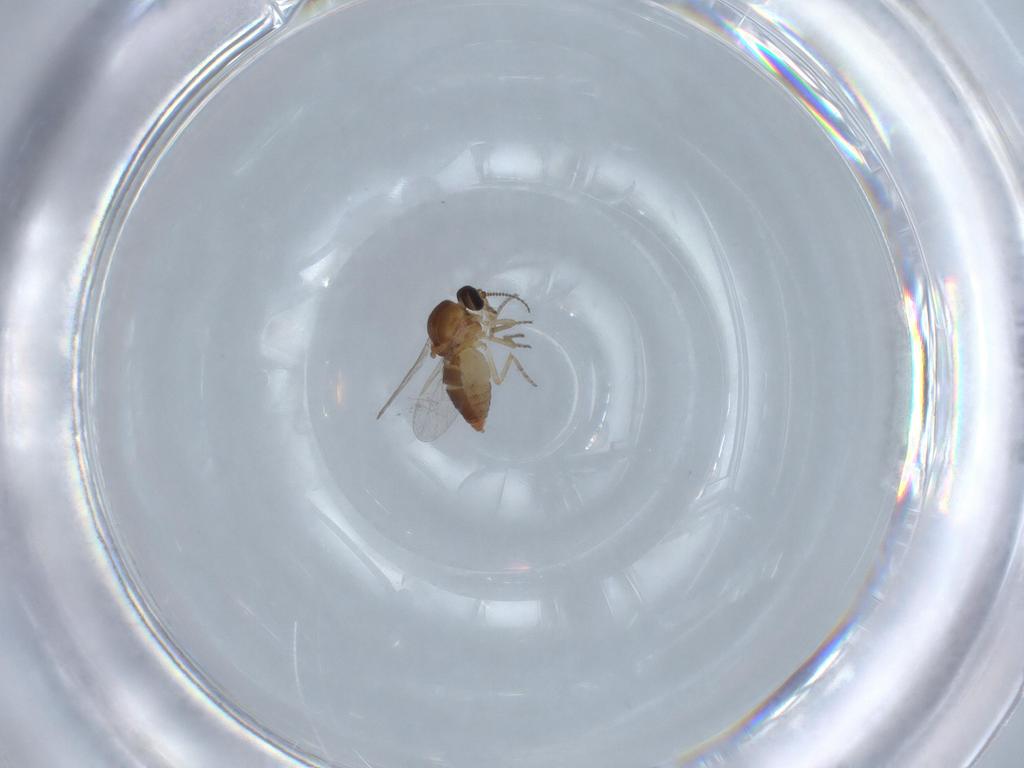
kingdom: Animalia
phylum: Arthropoda
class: Insecta
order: Diptera
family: Ceratopogonidae
